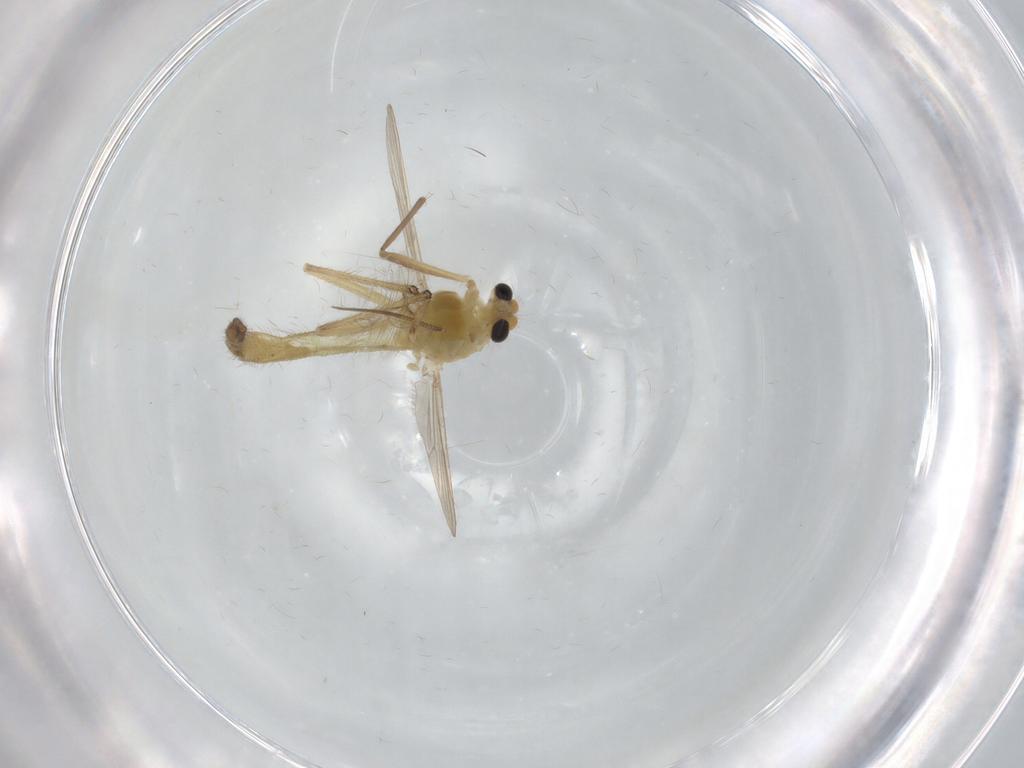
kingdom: Animalia
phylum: Arthropoda
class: Insecta
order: Diptera
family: Chironomidae
